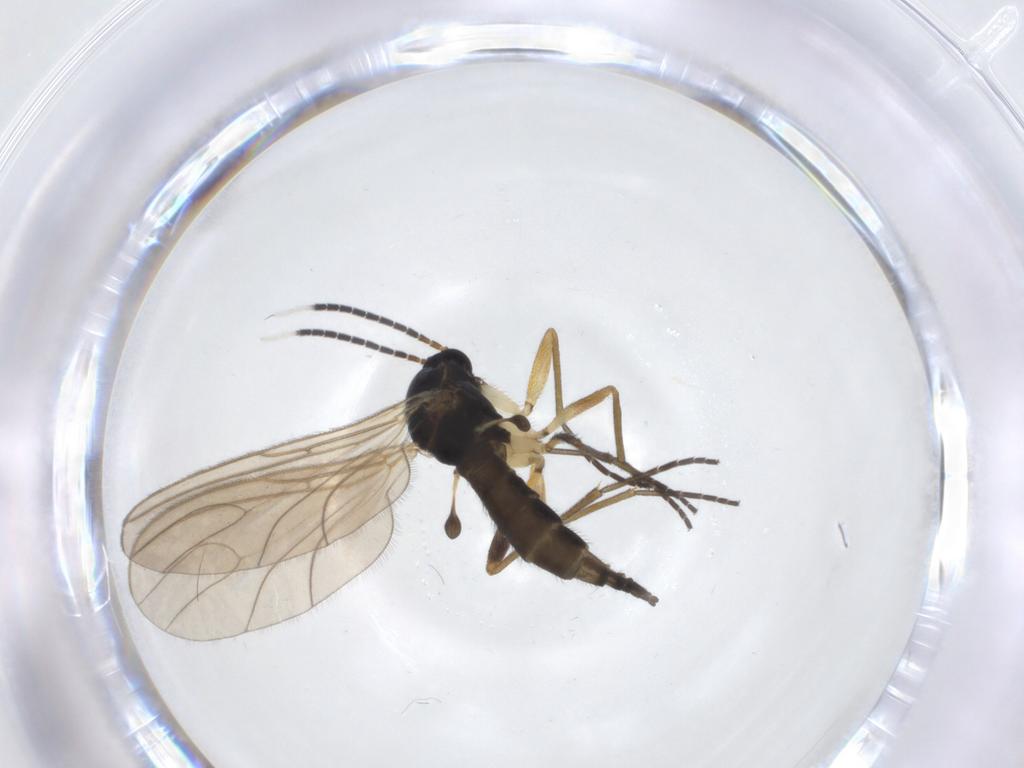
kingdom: Animalia
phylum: Arthropoda
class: Insecta
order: Diptera
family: Sciaridae
